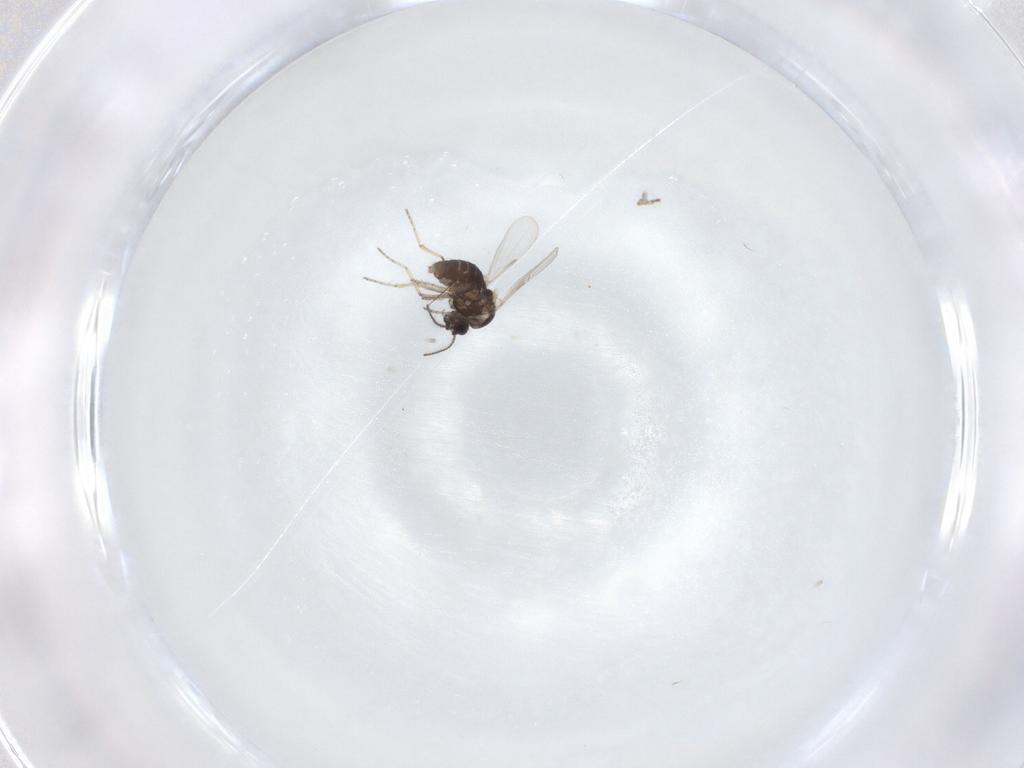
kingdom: Animalia
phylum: Arthropoda
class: Insecta
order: Diptera
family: Ceratopogonidae
